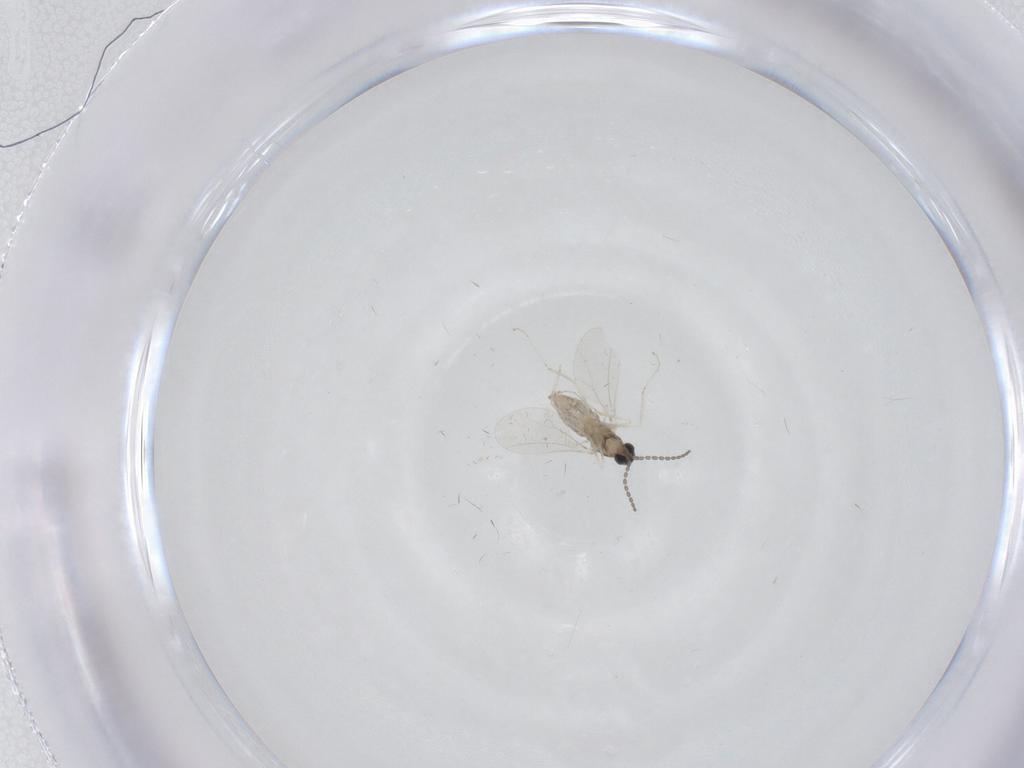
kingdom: Animalia
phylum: Arthropoda
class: Insecta
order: Diptera
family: Cecidomyiidae
